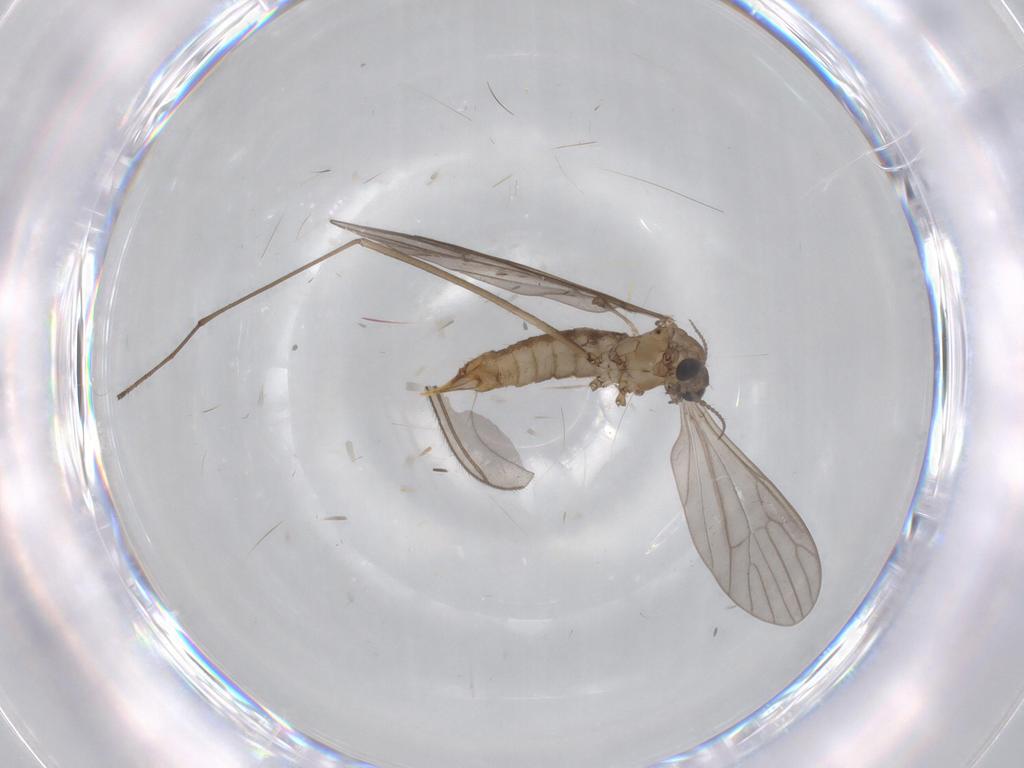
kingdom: Animalia
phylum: Arthropoda
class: Insecta
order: Diptera
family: Limoniidae
